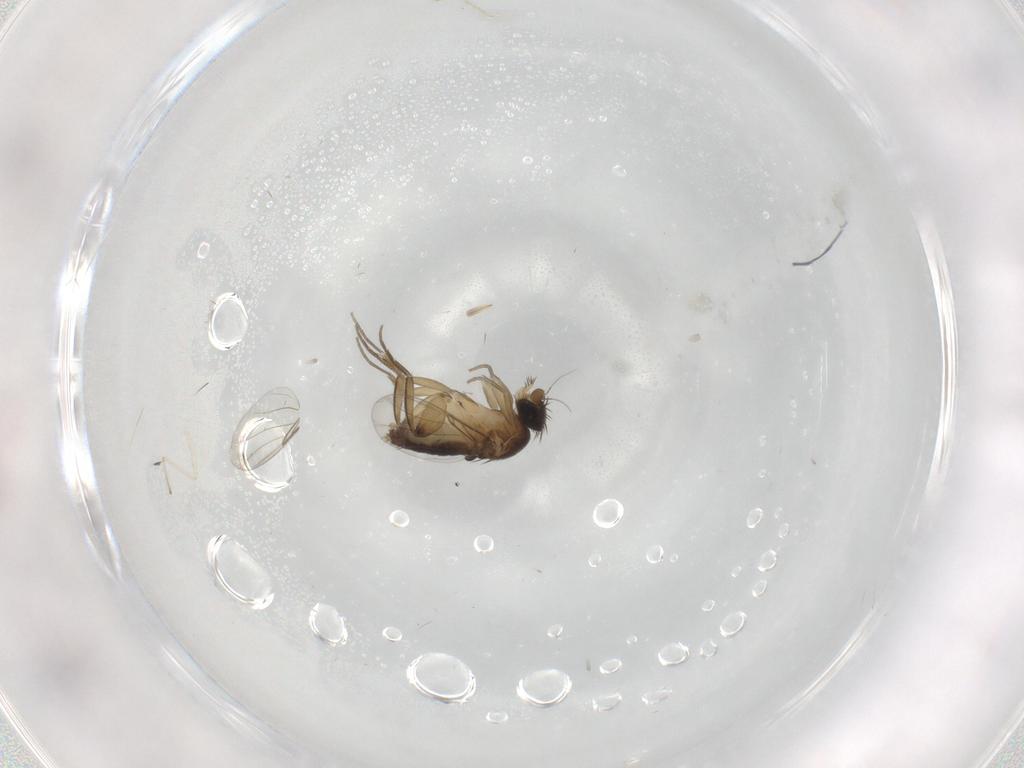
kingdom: Animalia
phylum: Arthropoda
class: Insecta
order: Diptera
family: Phoridae
